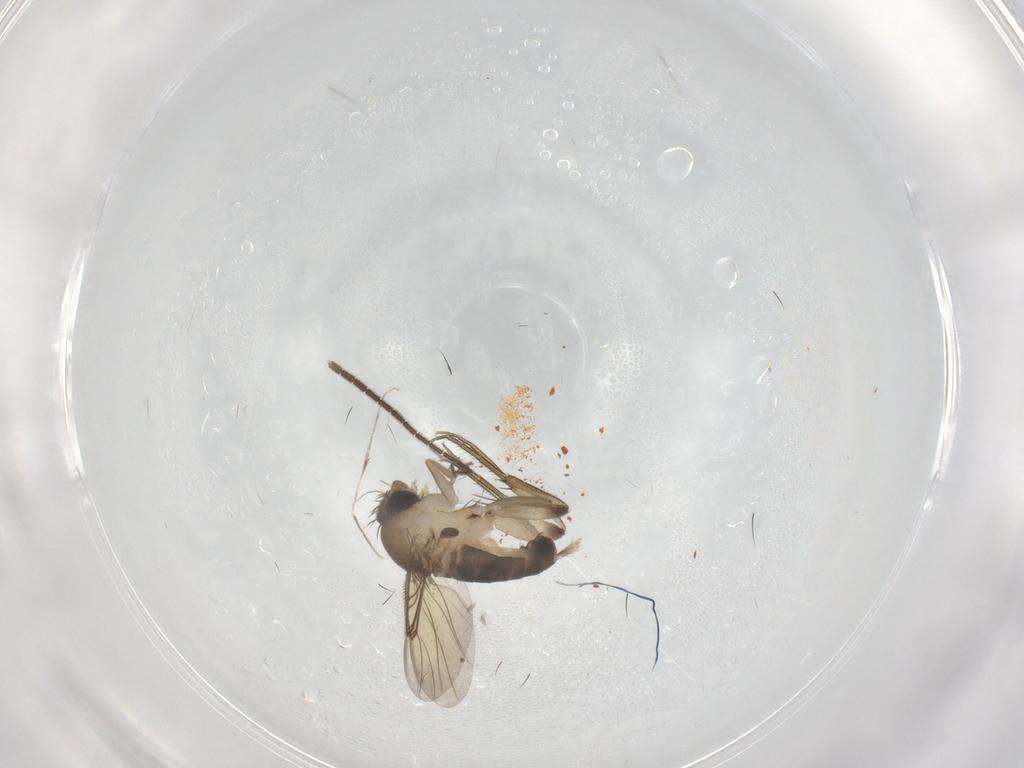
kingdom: Animalia
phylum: Arthropoda
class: Insecta
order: Diptera
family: Phoridae
